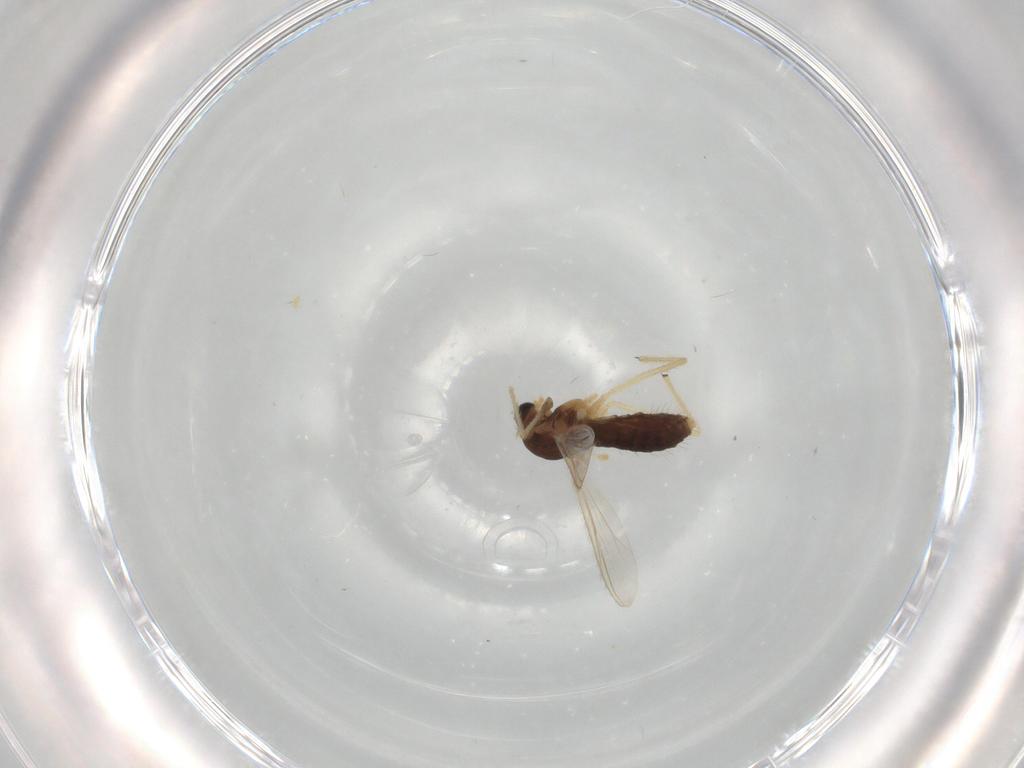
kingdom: Animalia
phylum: Arthropoda
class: Insecta
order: Diptera
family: Chironomidae
